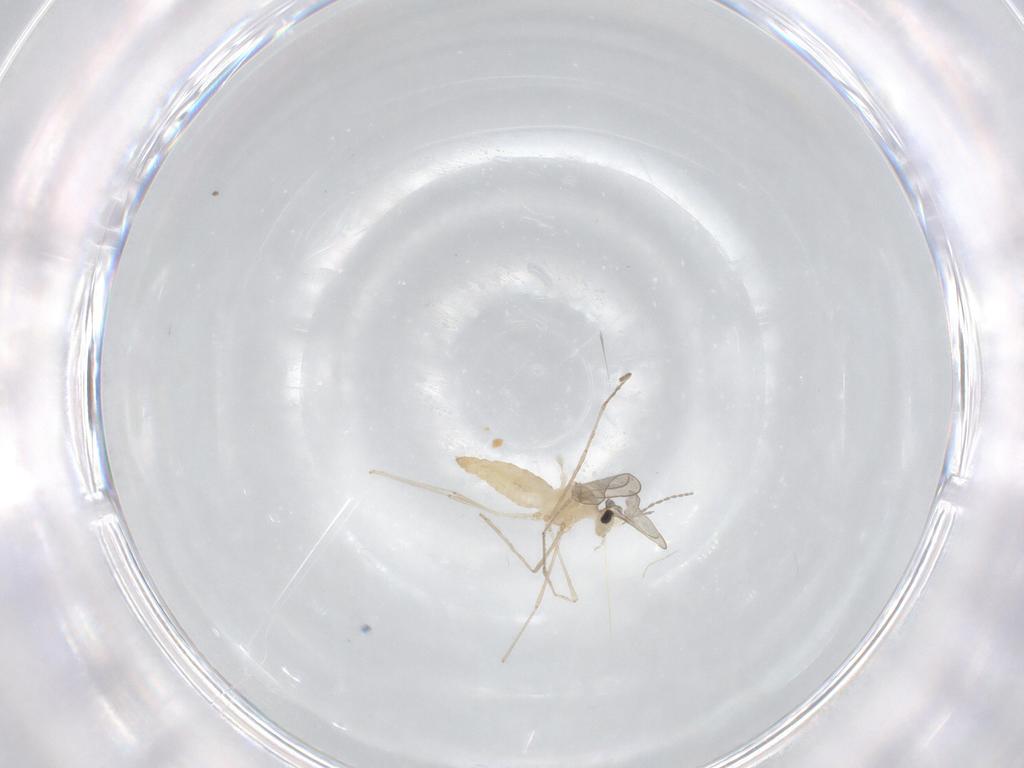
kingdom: Animalia
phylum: Arthropoda
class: Insecta
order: Diptera
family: Cecidomyiidae
